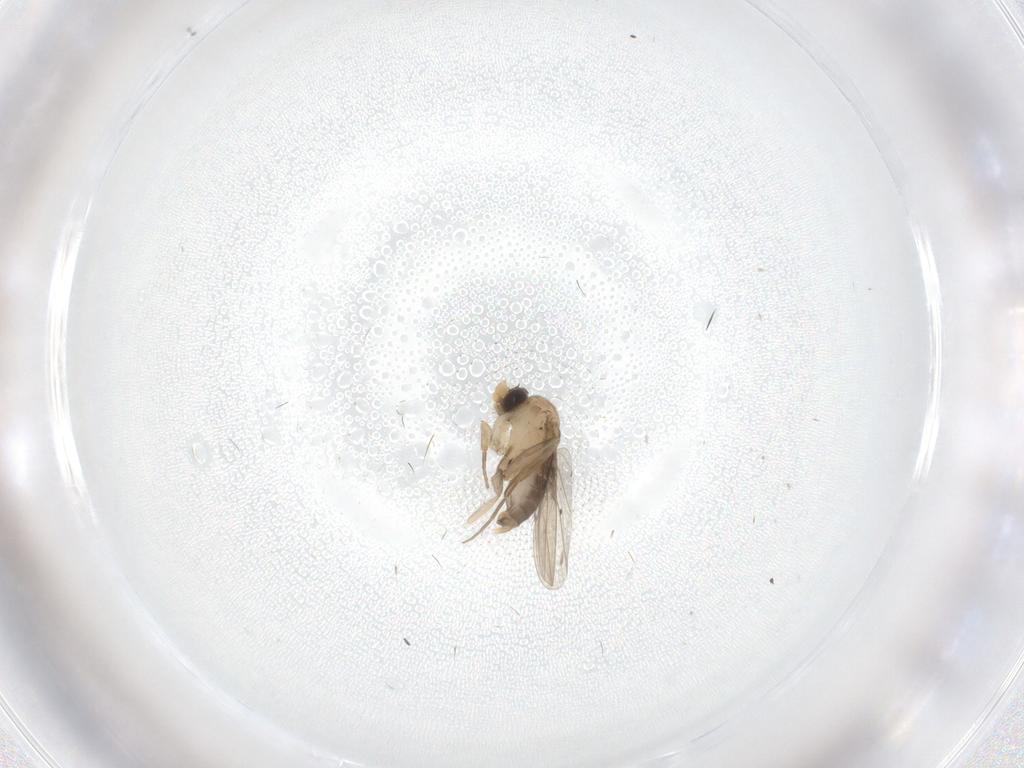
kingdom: Animalia
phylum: Arthropoda
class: Insecta
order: Diptera
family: Phoridae
